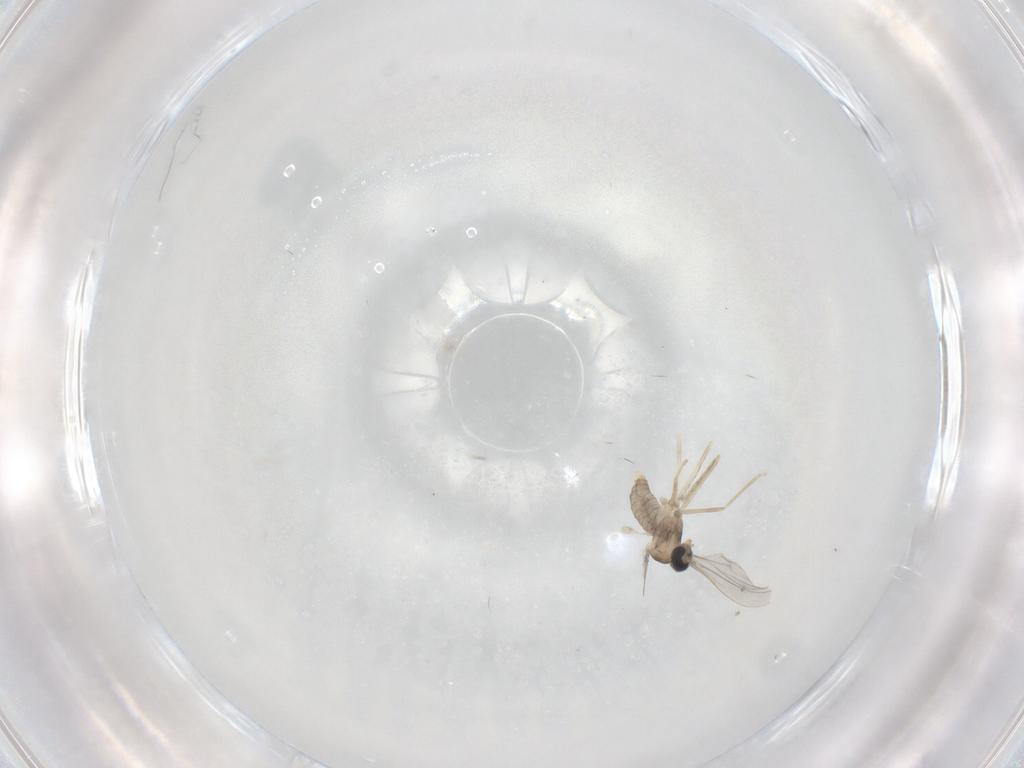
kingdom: Animalia
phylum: Arthropoda
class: Insecta
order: Diptera
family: Cecidomyiidae
